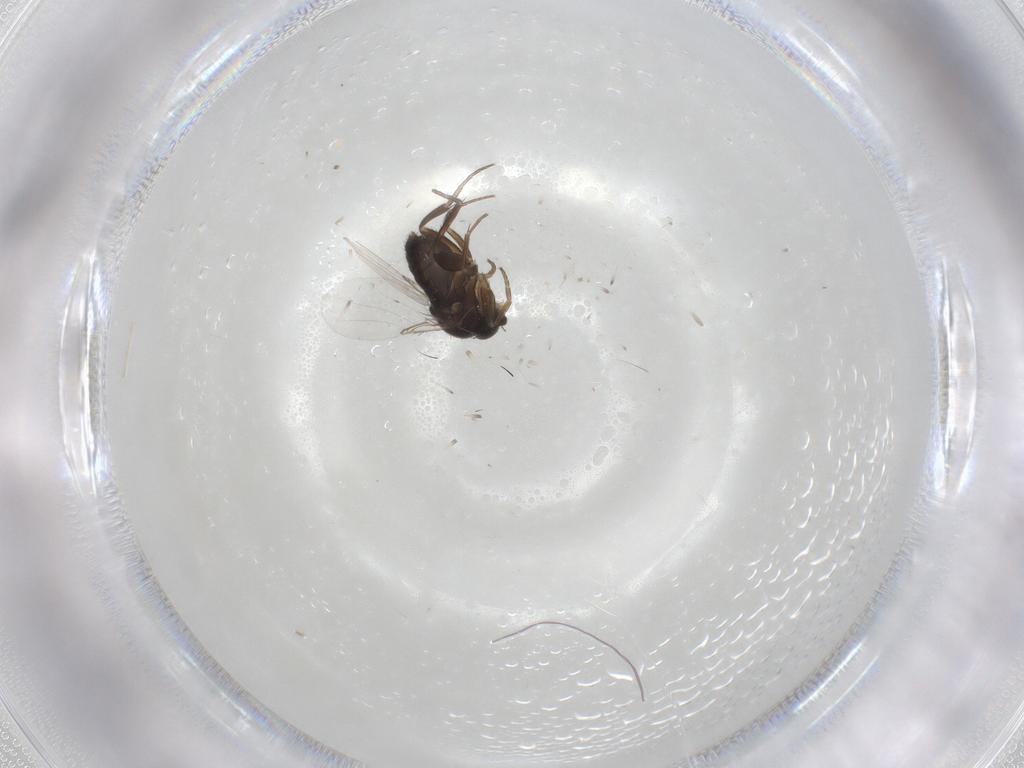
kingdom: Animalia
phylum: Arthropoda
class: Insecta
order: Diptera
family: Phoridae
